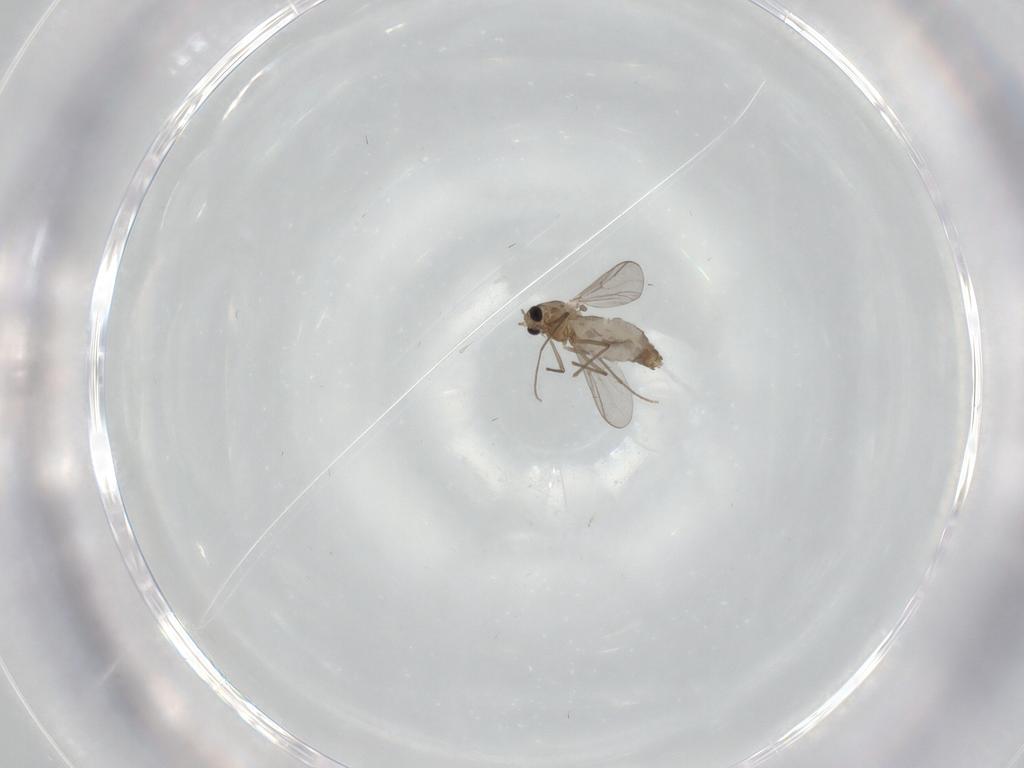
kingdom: Animalia
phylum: Arthropoda
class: Insecta
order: Diptera
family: Chironomidae
